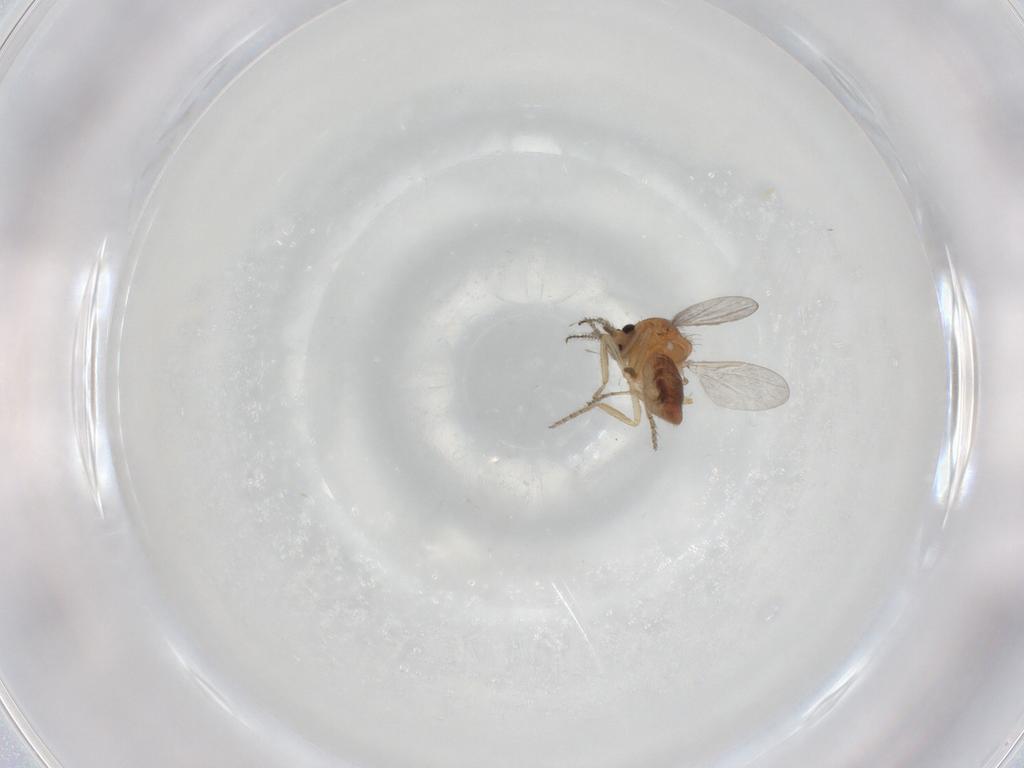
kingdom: Animalia
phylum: Arthropoda
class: Insecta
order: Diptera
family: Ceratopogonidae
